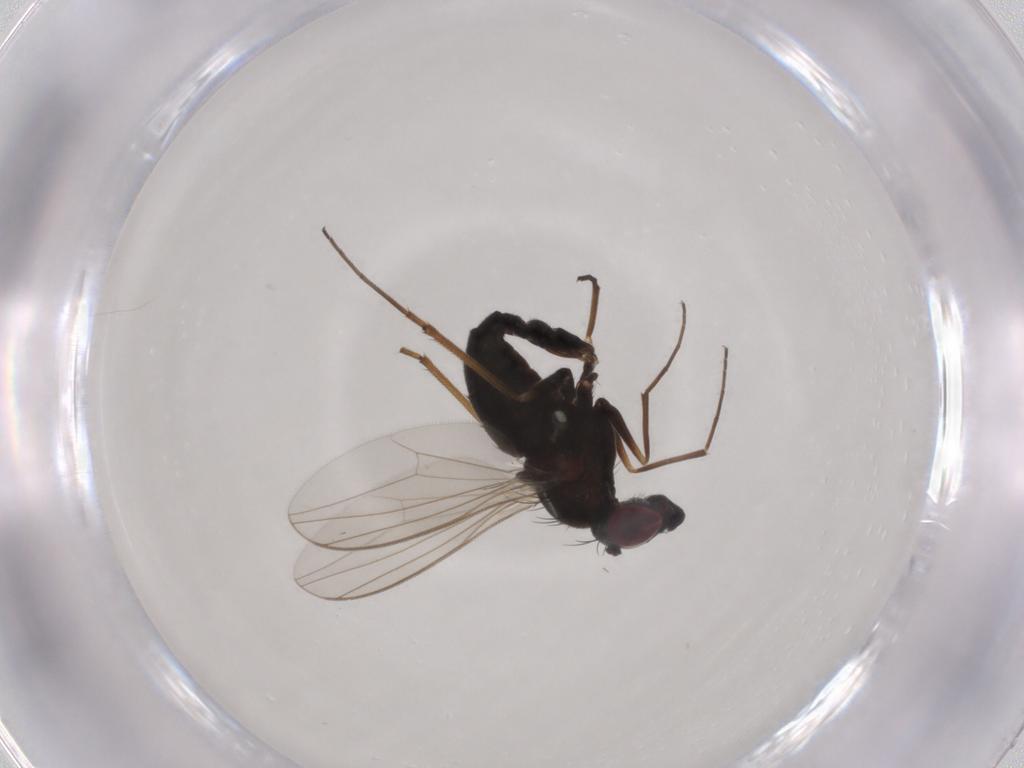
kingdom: Animalia
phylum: Arthropoda
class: Insecta
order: Diptera
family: Dolichopodidae
